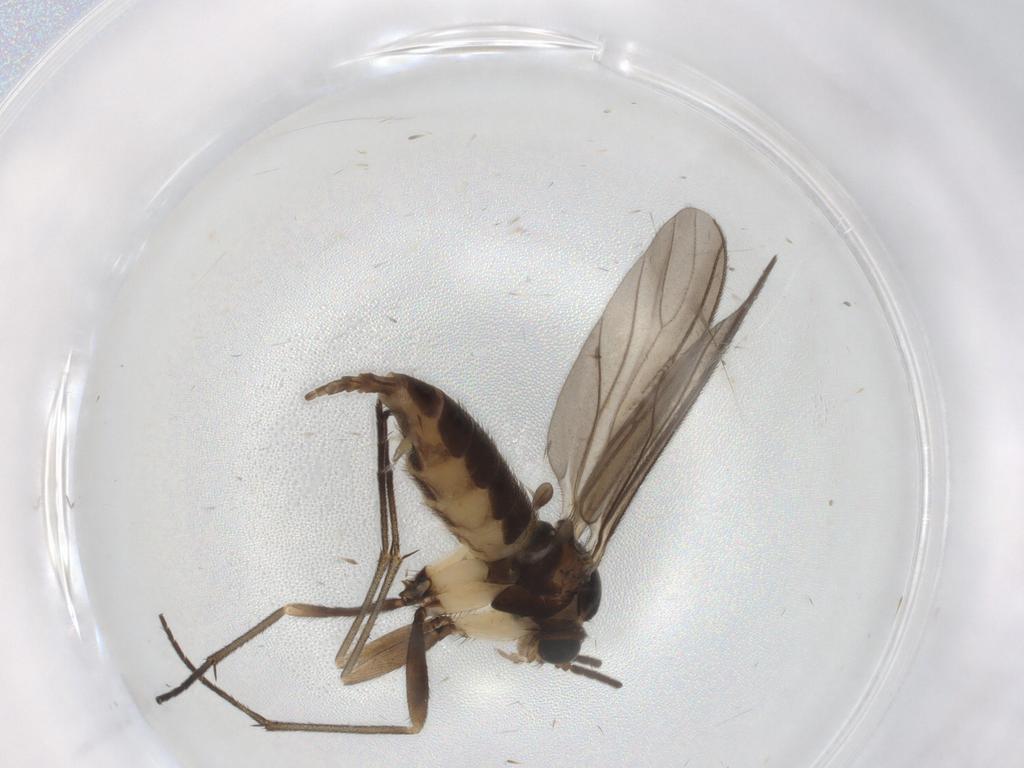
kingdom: Animalia
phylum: Arthropoda
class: Insecta
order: Diptera
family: Sciaridae
